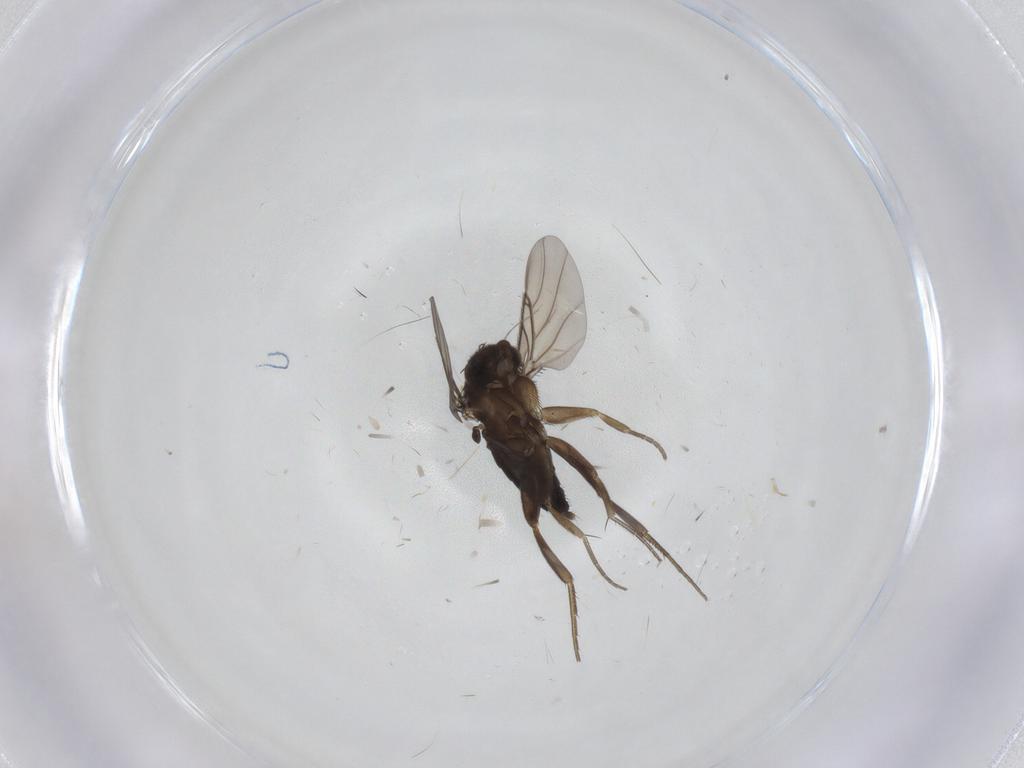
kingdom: Animalia
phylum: Arthropoda
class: Insecta
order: Diptera
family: Phoridae
